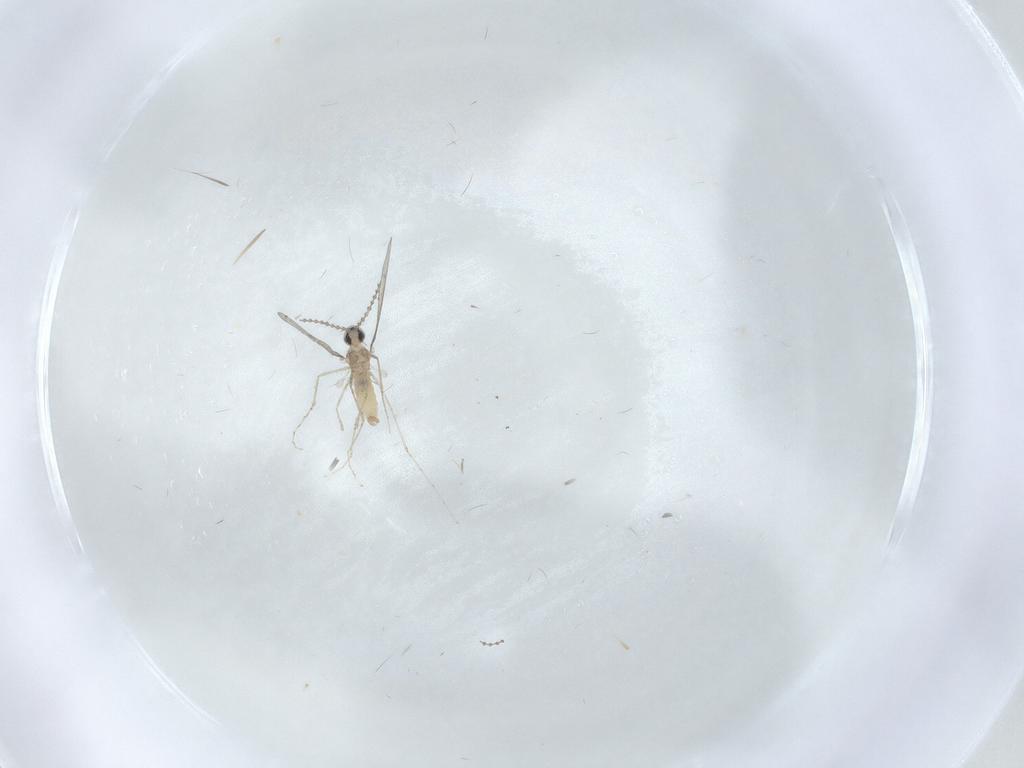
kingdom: Animalia
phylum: Arthropoda
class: Insecta
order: Diptera
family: Cecidomyiidae
